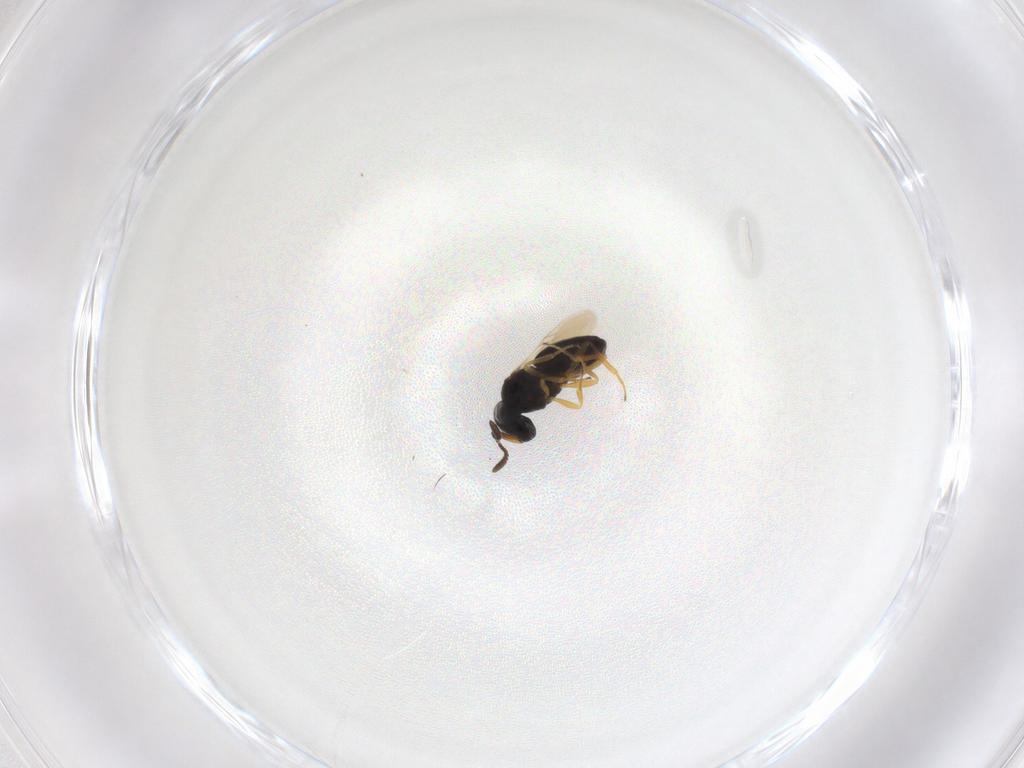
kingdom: Animalia
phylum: Arthropoda
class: Insecta
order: Hymenoptera
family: Scelionidae
